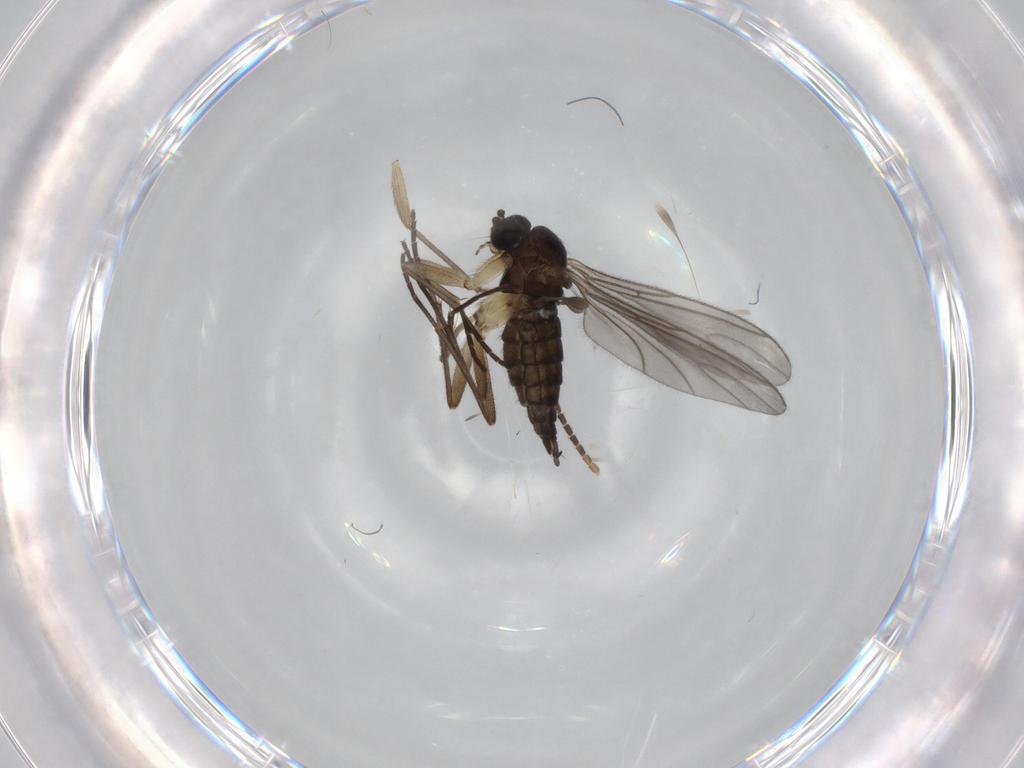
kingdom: Animalia
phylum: Arthropoda
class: Insecta
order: Diptera
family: Sciaridae
